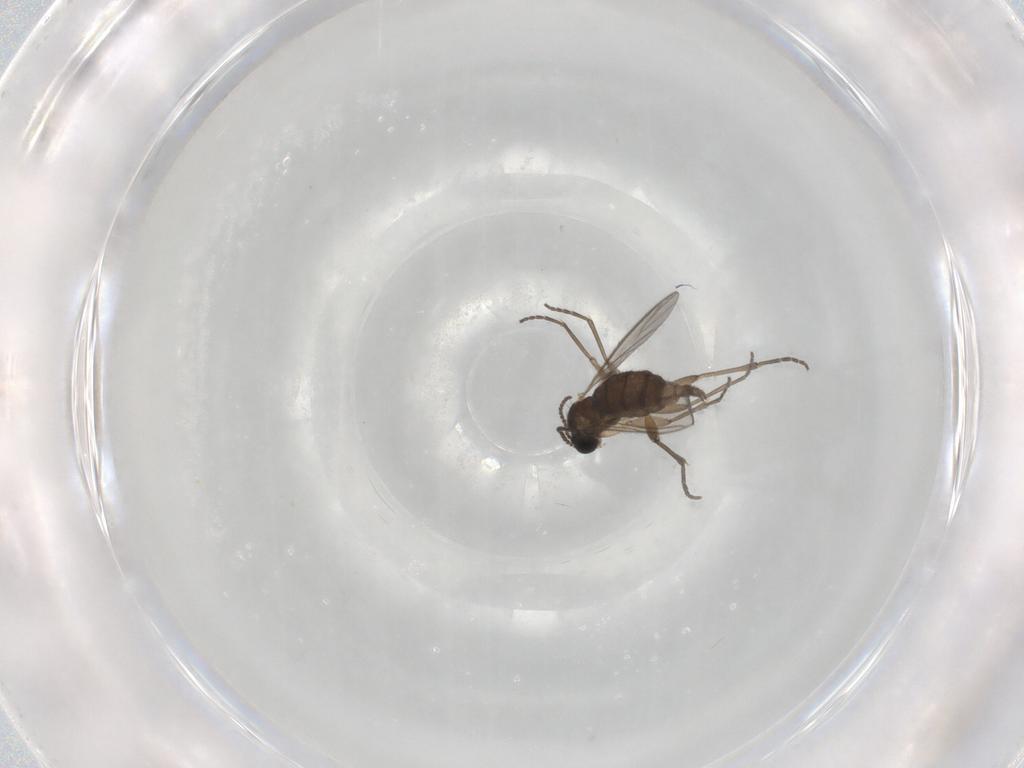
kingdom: Animalia
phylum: Arthropoda
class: Insecta
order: Diptera
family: Sciaridae
